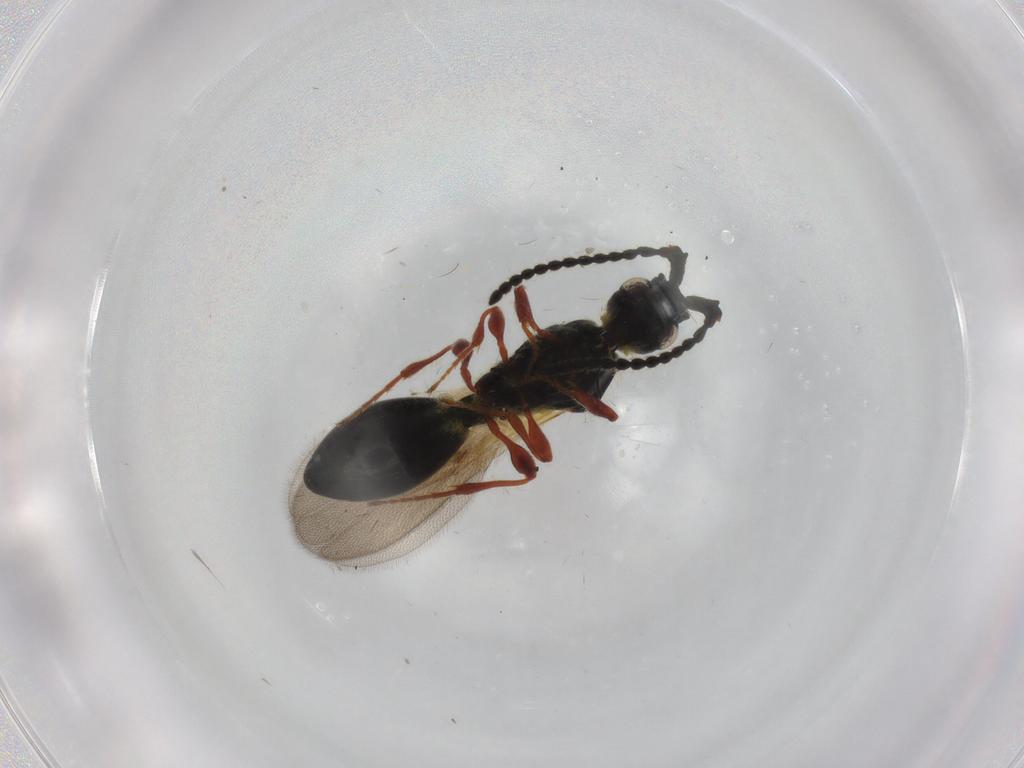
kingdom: Animalia
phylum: Arthropoda
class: Insecta
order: Hymenoptera
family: Diapriidae
